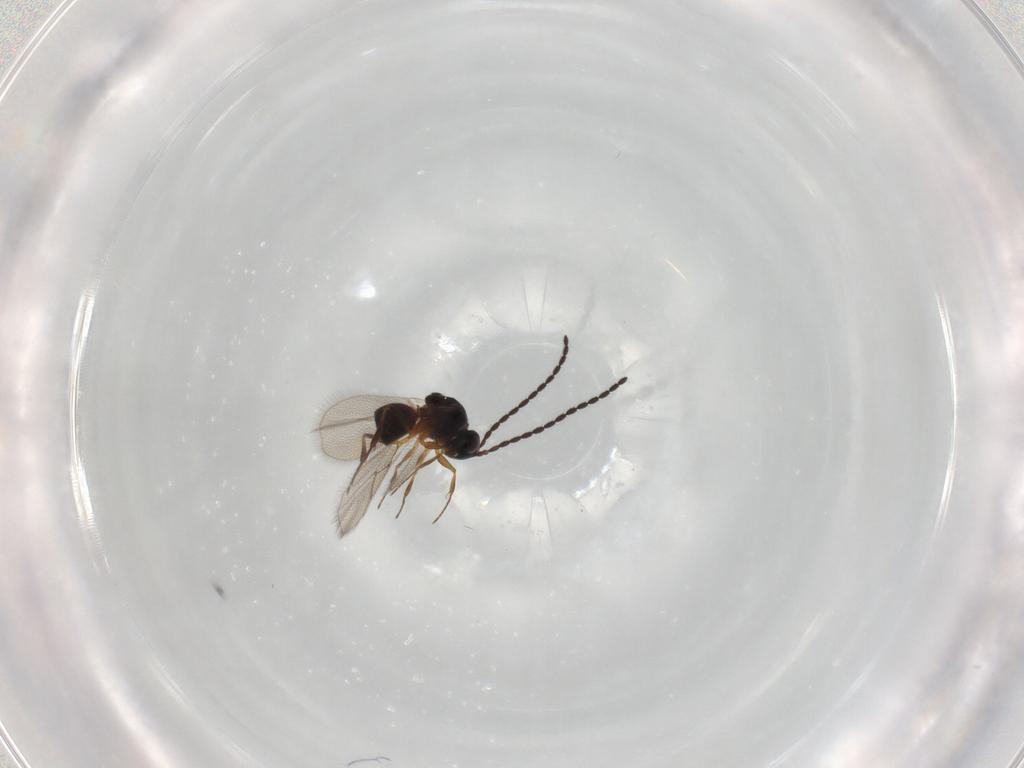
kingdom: Animalia
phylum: Arthropoda
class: Insecta
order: Hymenoptera
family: Figitidae
